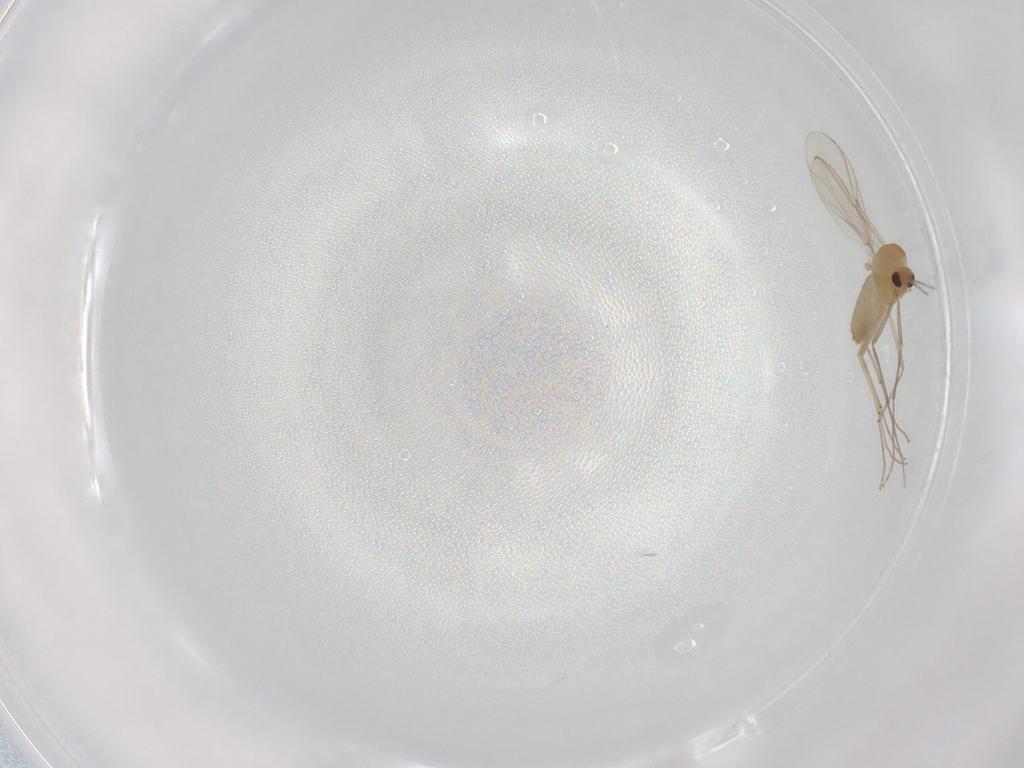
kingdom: Animalia
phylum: Arthropoda
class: Insecta
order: Diptera
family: Chironomidae
